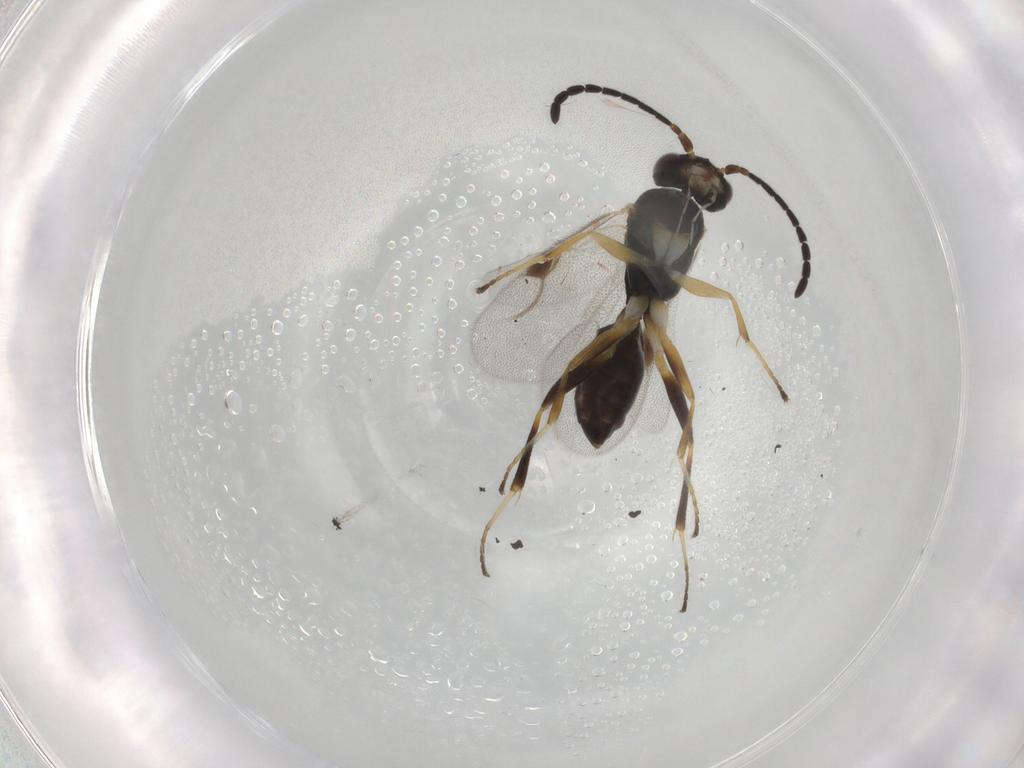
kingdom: Animalia
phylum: Arthropoda
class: Insecta
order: Hymenoptera
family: Dryinidae
